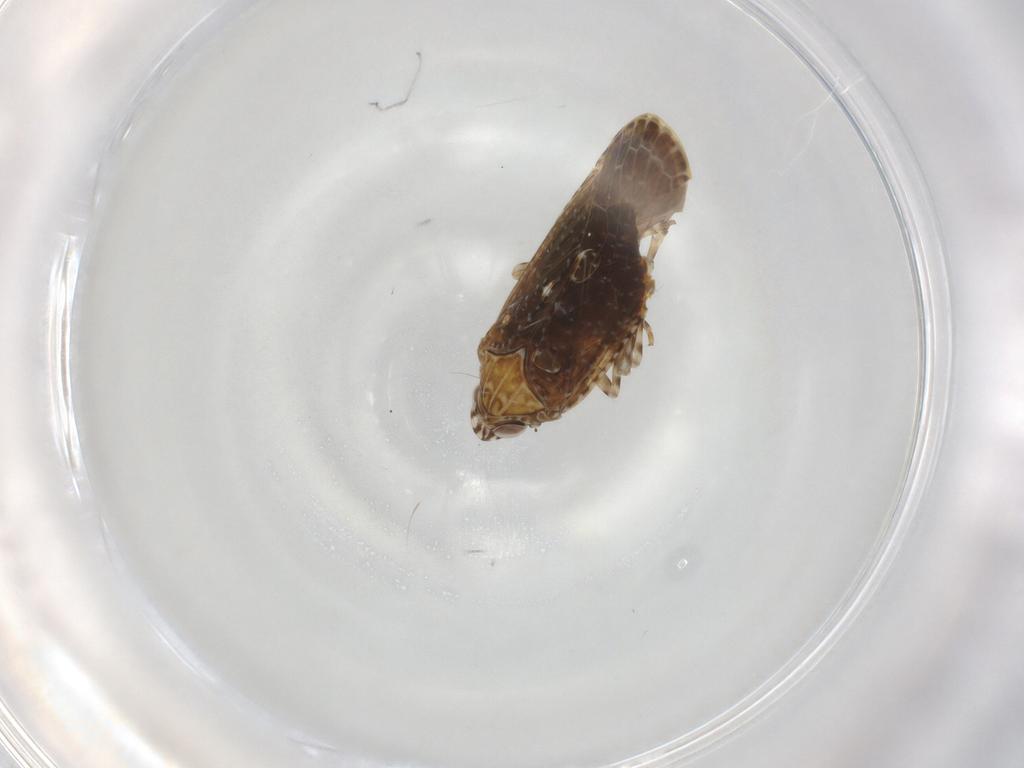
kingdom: Animalia
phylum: Arthropoda
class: Insecta
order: Hemiptera
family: Achilidae
